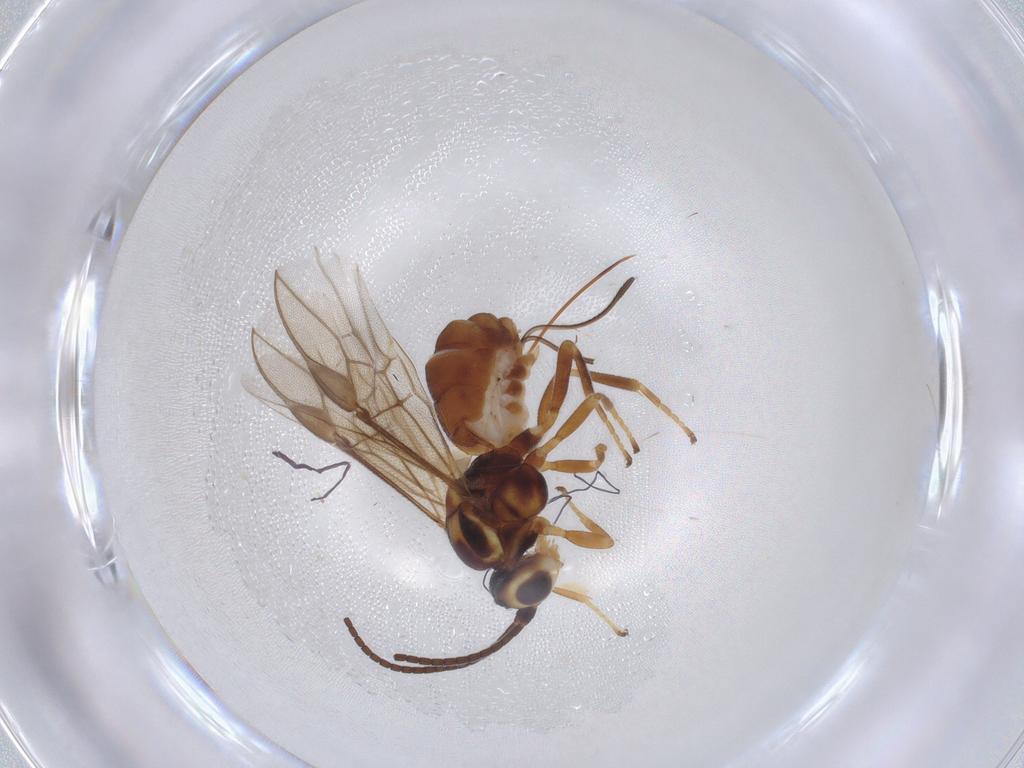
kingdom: Animalia
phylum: Arthropoda
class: Insecta
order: Hymenoptera
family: Braconidae
